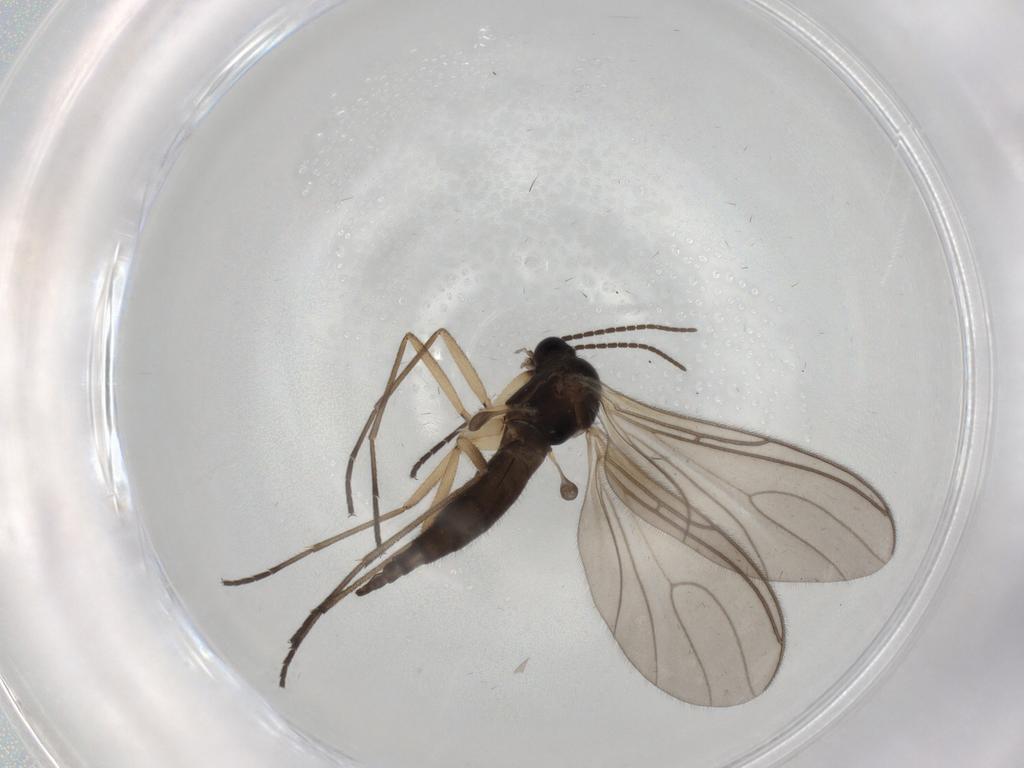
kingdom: Animalia
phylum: Arthropoda
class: Insecta
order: Diptera
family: Sciaridae
